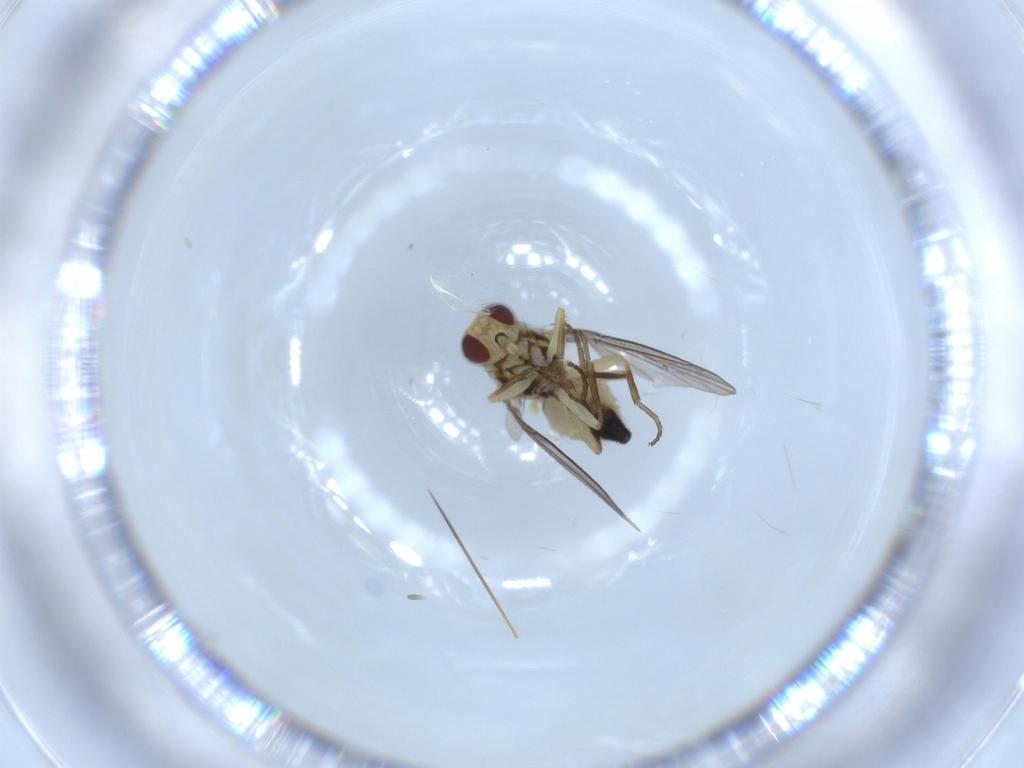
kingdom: Animalia
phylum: Arthropoda
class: Insecta
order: Diptera
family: Agromyzidae
